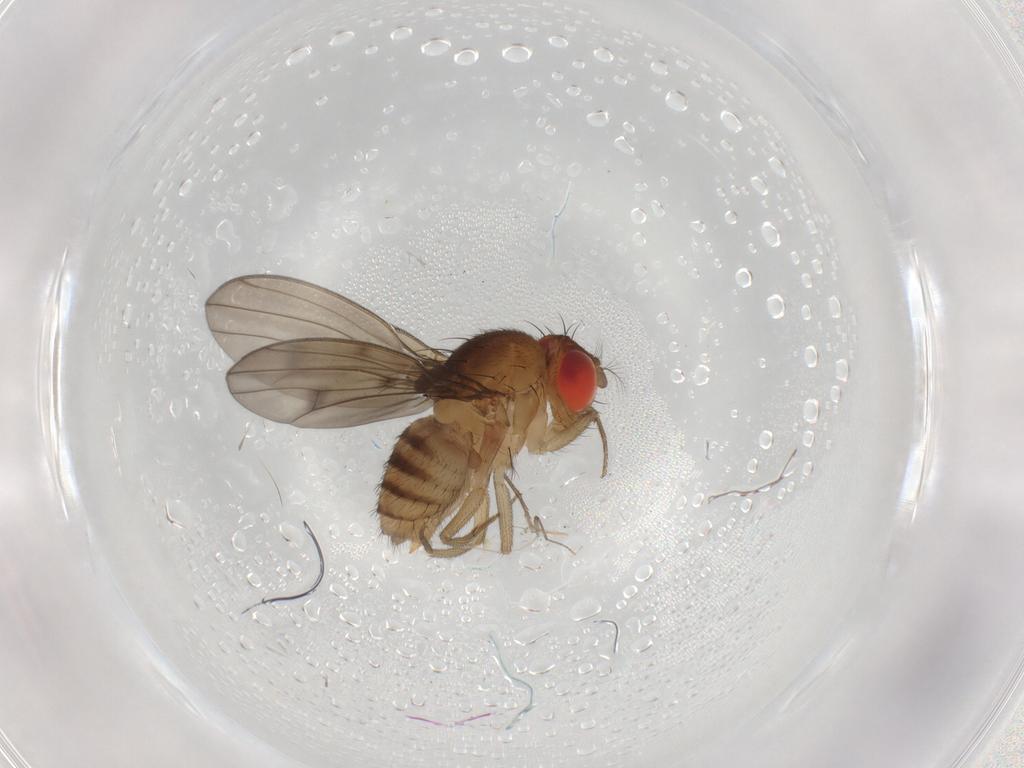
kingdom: Animalia
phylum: Arthropoda
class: Insecta
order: Diptera
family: Drosophilidae
